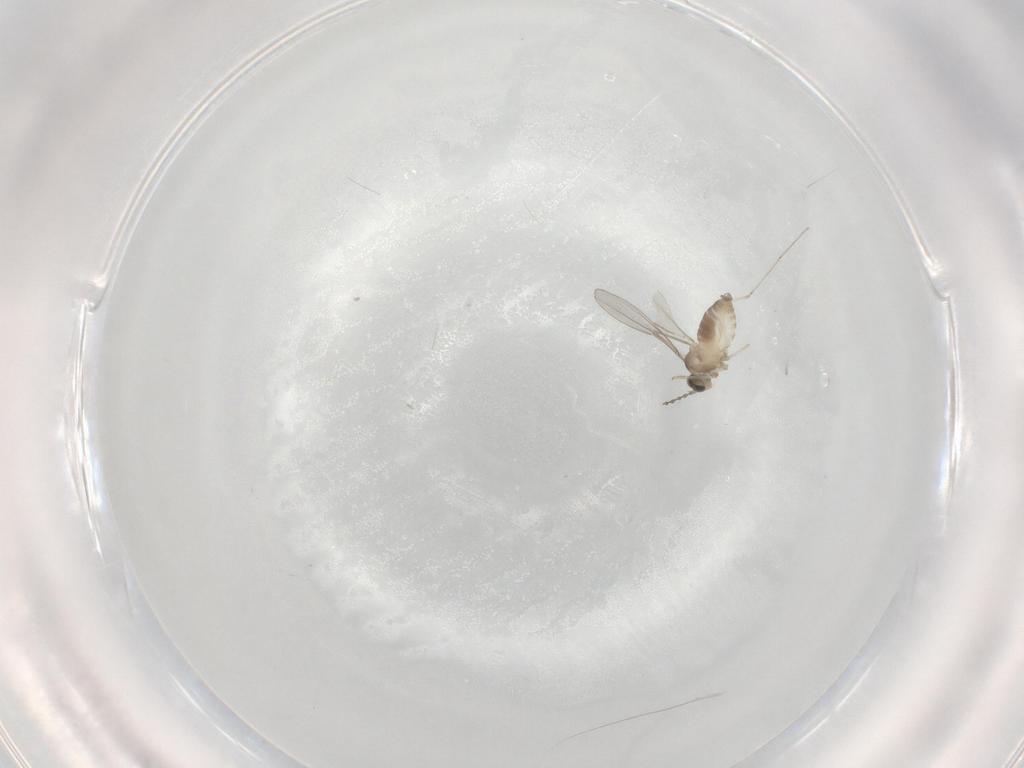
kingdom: Animalia
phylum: Arthropoda
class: Insecta
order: Diptera
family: Cecidomyiidae
